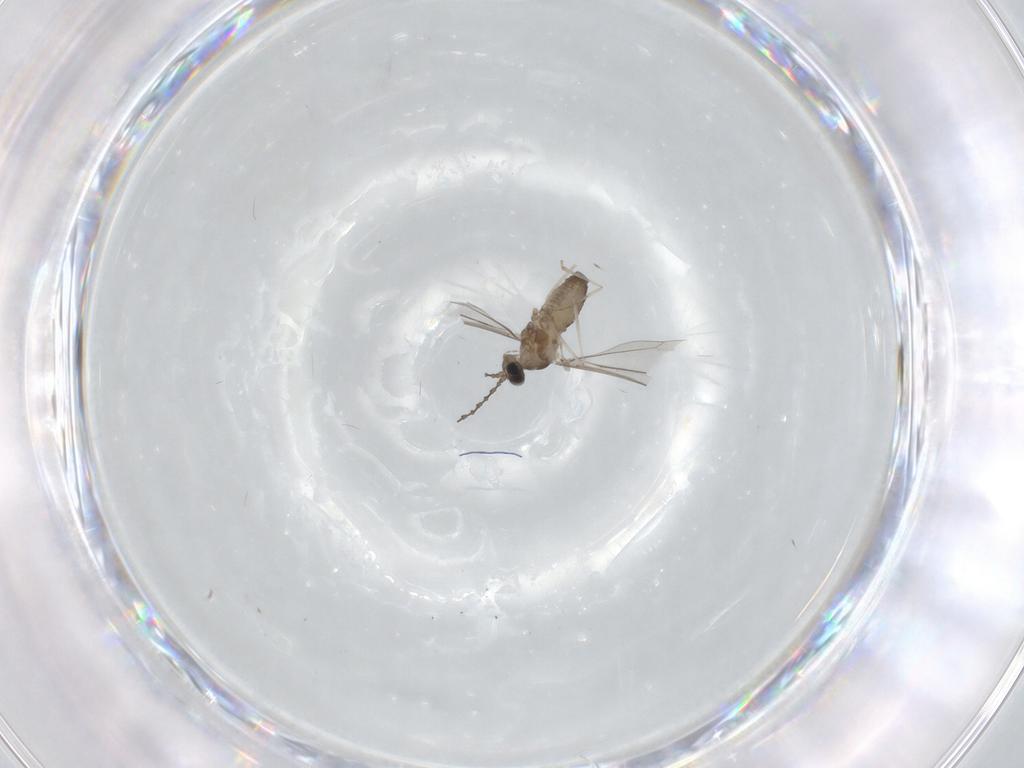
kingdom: Animalia
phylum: Arthropoda
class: Insecta
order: Diptera
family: Cecidomyiidae
